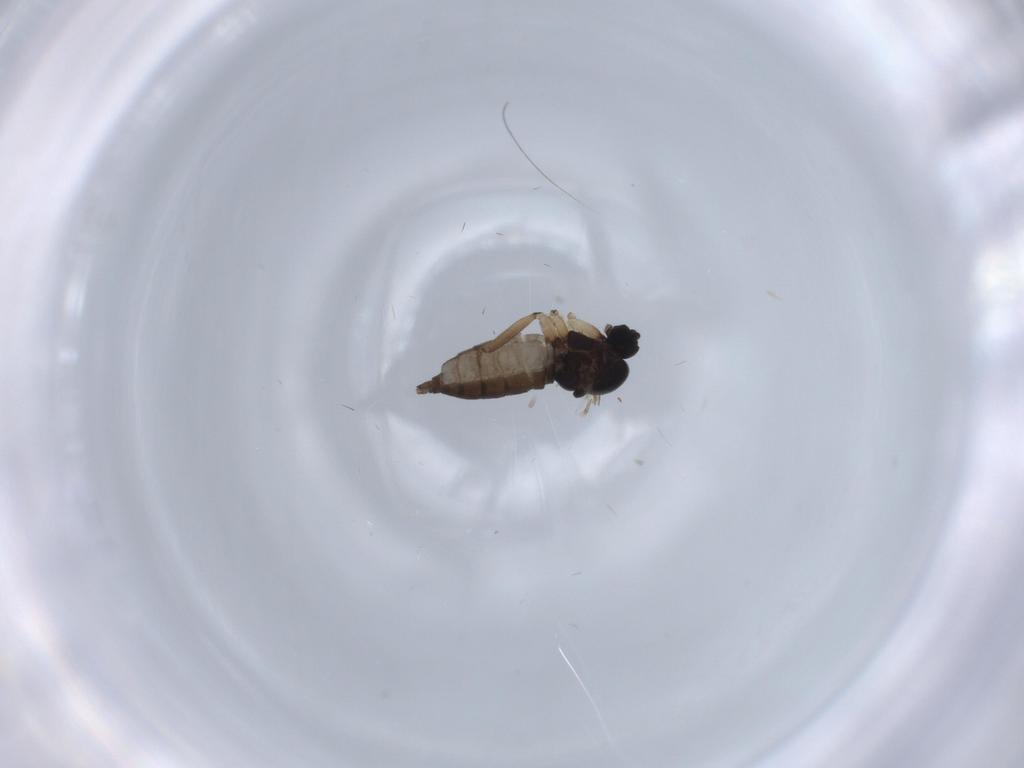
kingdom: Animalia
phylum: Arthropoda
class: Insecta
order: Diptera
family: Sciaridae
